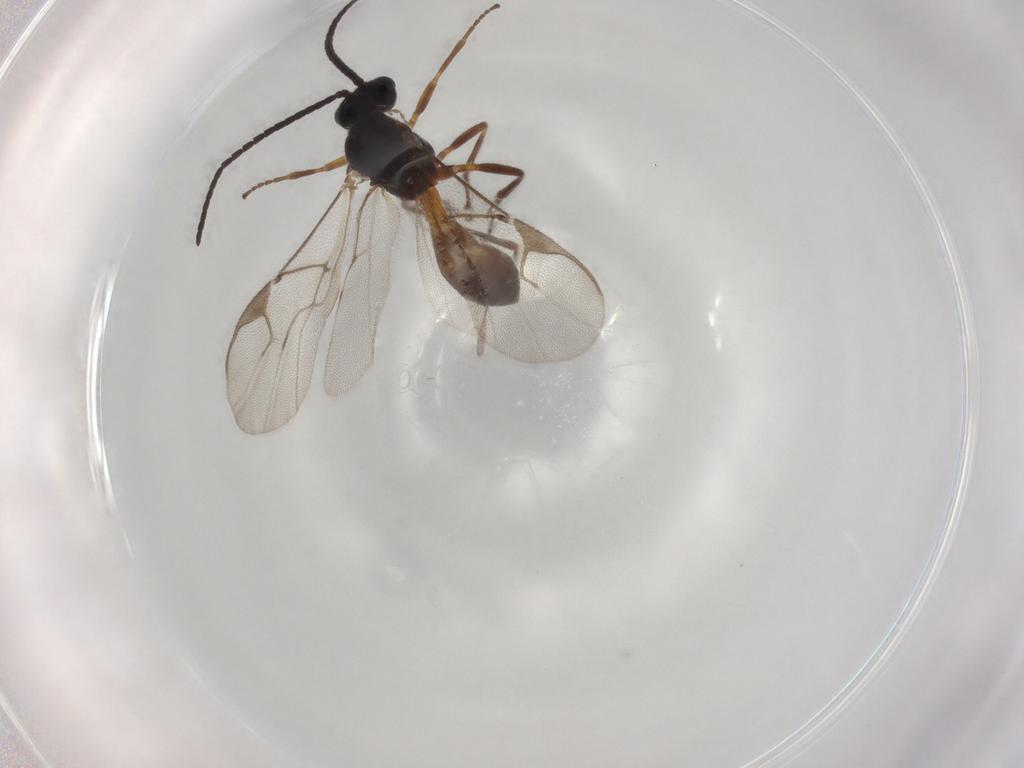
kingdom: Animalia
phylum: Arthropoda
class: Insecta
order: Hymenoptera
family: Braconidae
